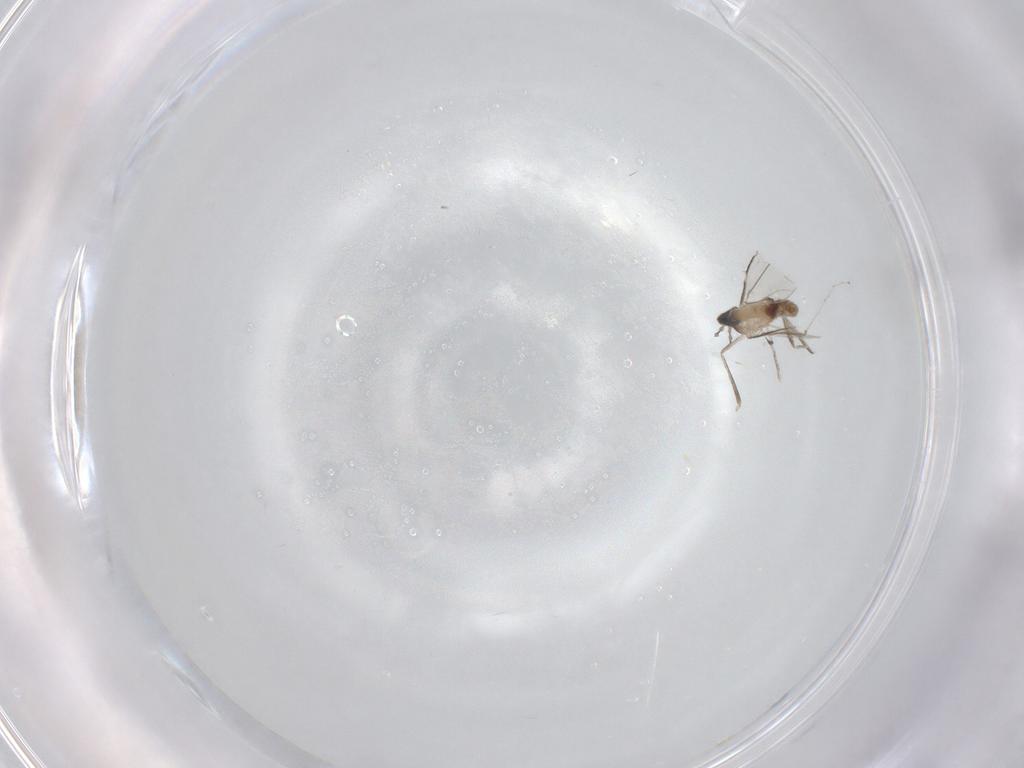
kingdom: Animalia
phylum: Arthropoda
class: Insecta
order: Diptera
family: Cecidomyiidae
